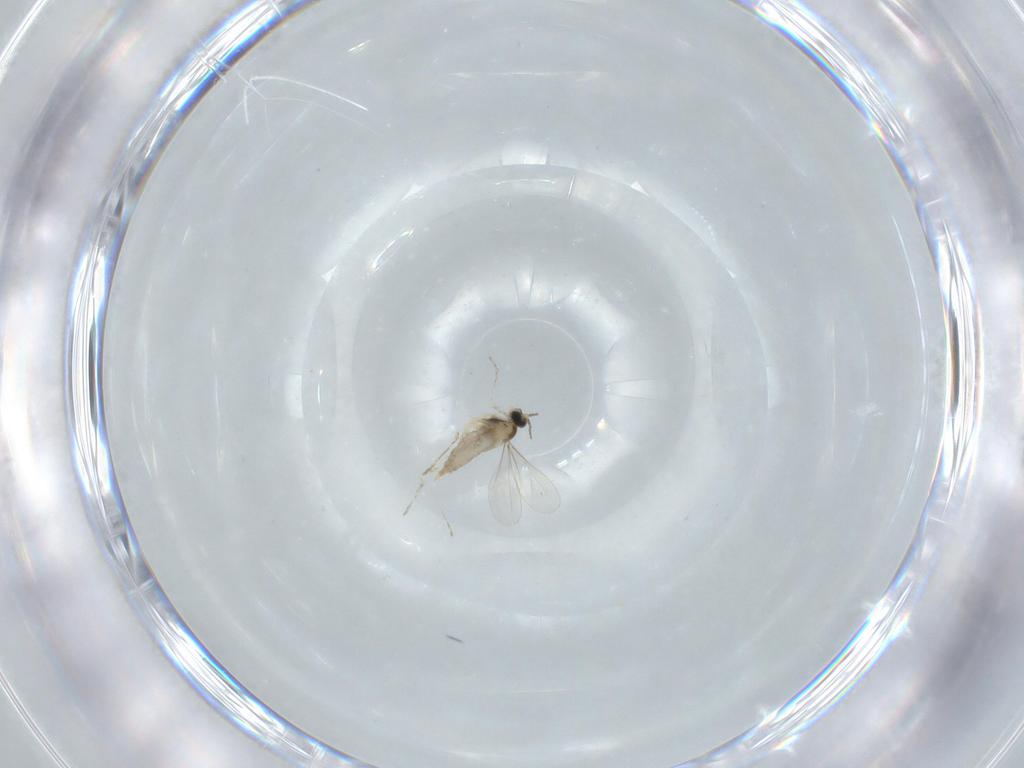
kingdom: Animalia
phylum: Arthropoda
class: Insecta
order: Diptera
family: Cecidomyiidae
